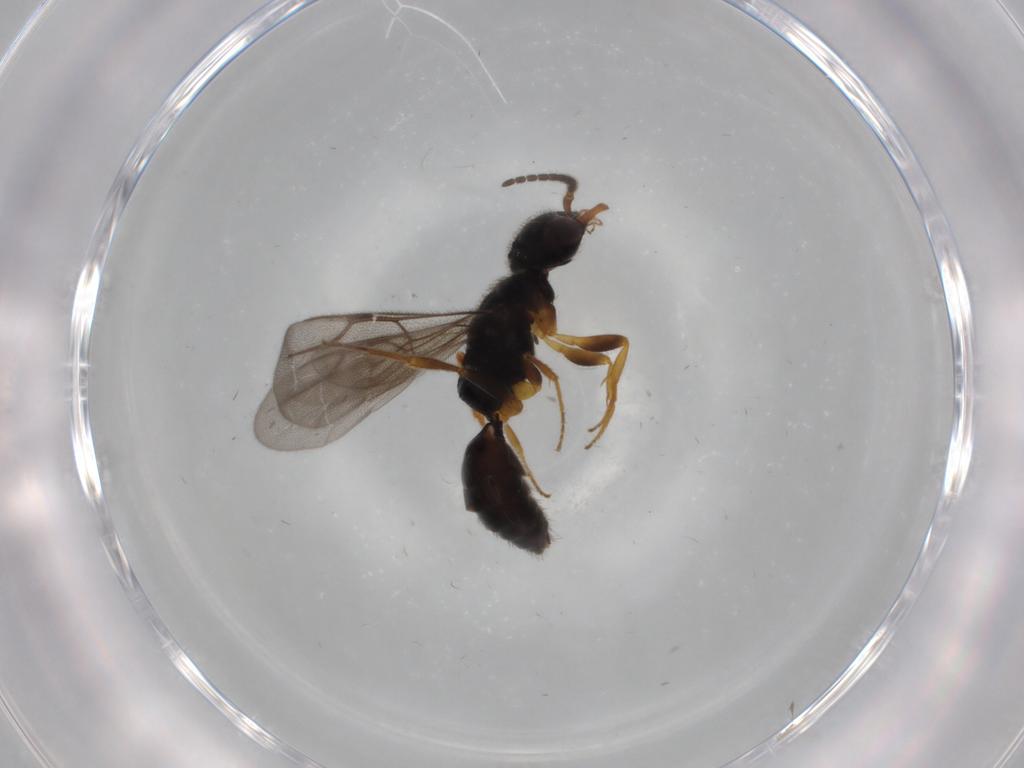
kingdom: Animalia
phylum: Arthropoda
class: Insecta
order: Hymenoptera
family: Bethylidae
